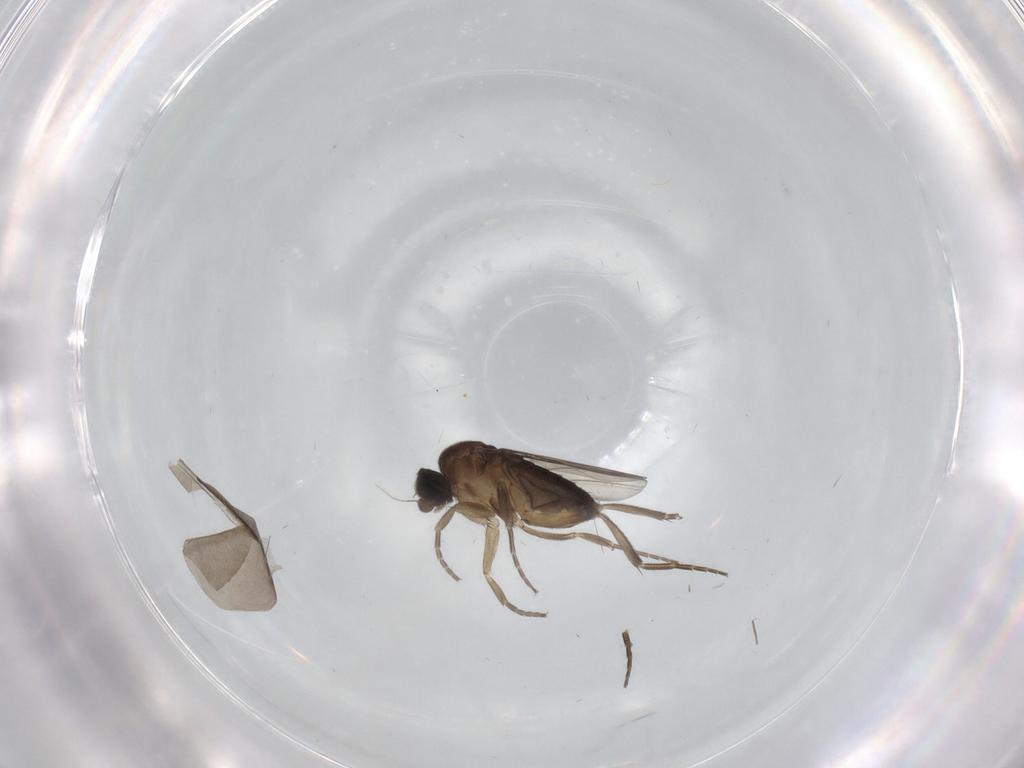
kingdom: Animalia
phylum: Arthropoda
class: Insecta
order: Diptera
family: Phoridae
